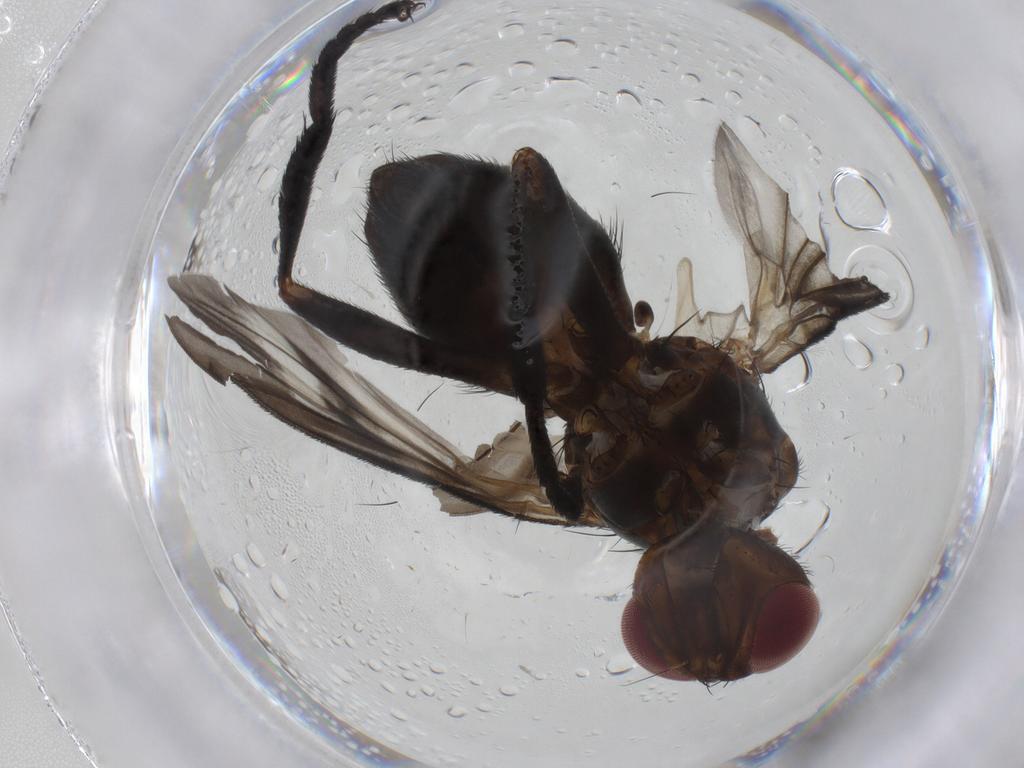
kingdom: Animalia
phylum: Arthropoda
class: Insecta
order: Diptera
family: Calliphoridae
